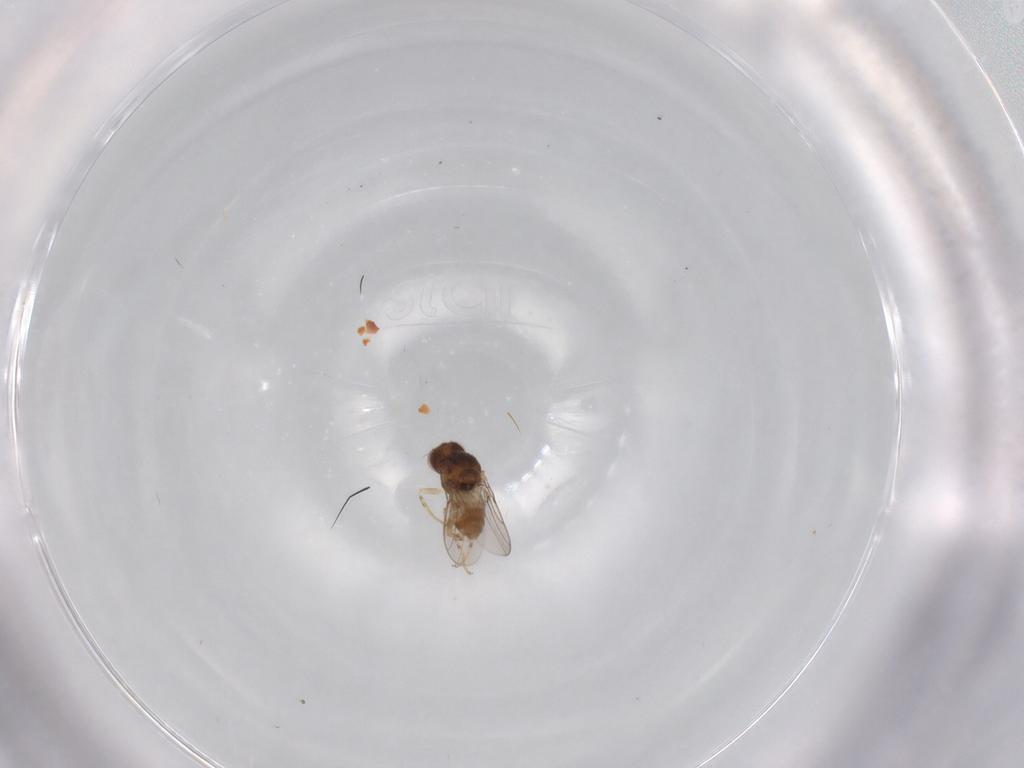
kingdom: Animalia
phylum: Arthropoda
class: Insecta
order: Diptera
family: Chloropidae
